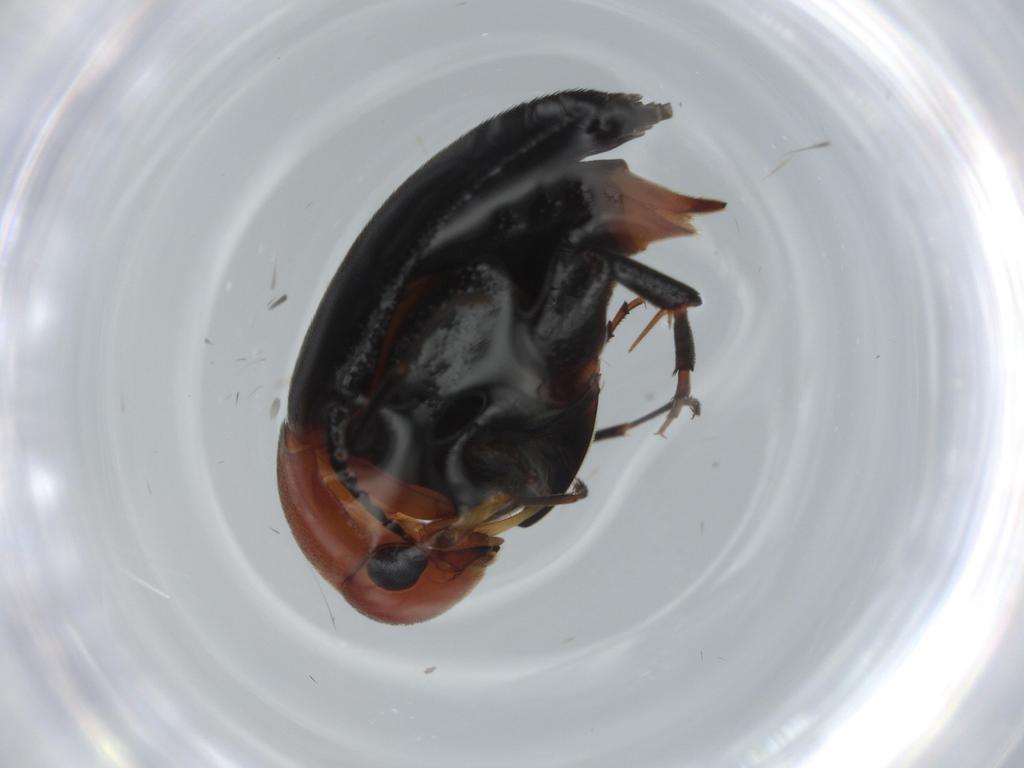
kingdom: Animalia
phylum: Arthropoda
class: Insecta
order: Coleoptera
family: Mordellidae
